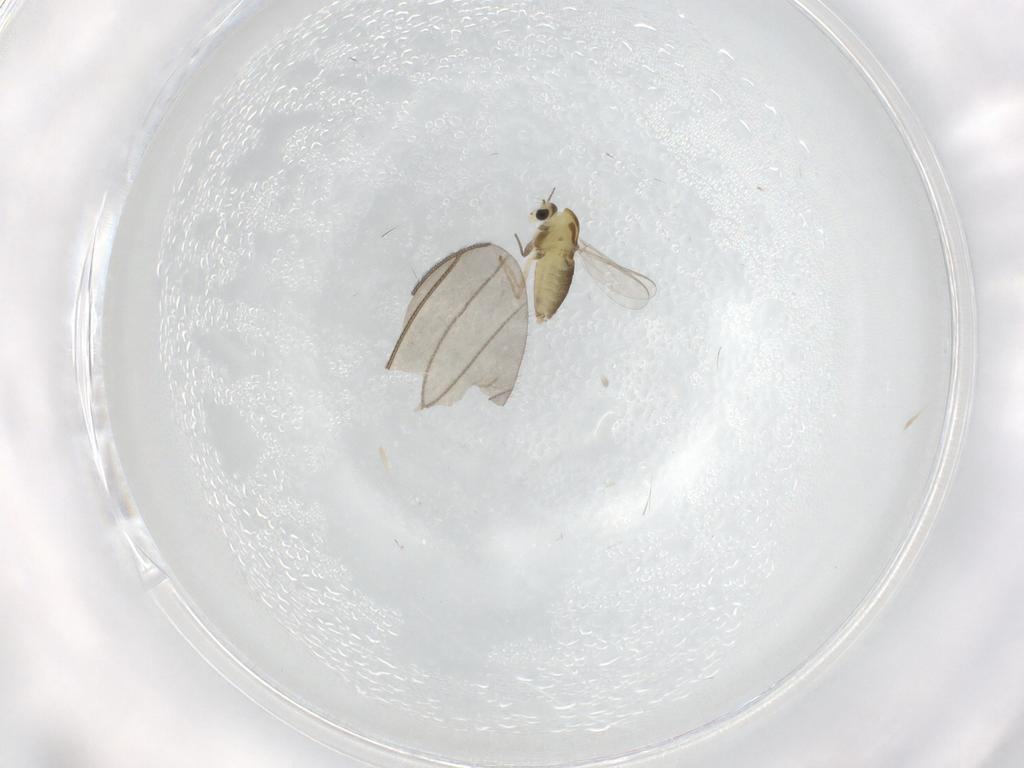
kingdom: Animalia
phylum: Arthropoda
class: Insecta
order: Diptera
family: Chironomidae
